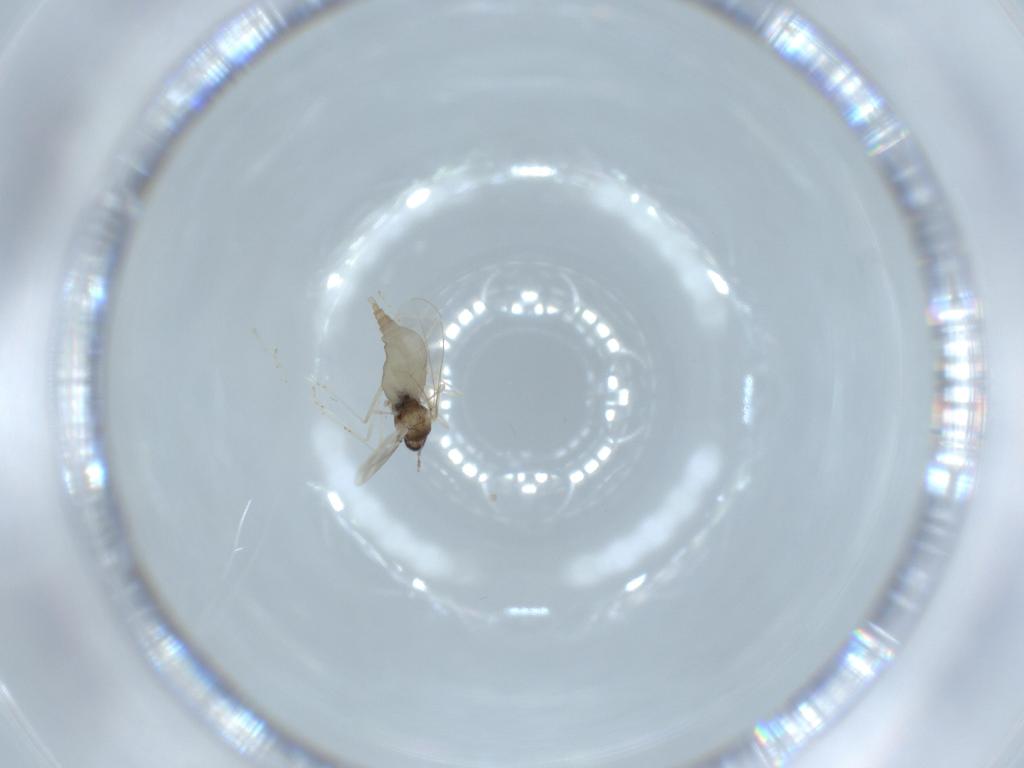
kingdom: Animalia
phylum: Arthropoda
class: Insecta
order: Diptera
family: Cecidomyiidae
